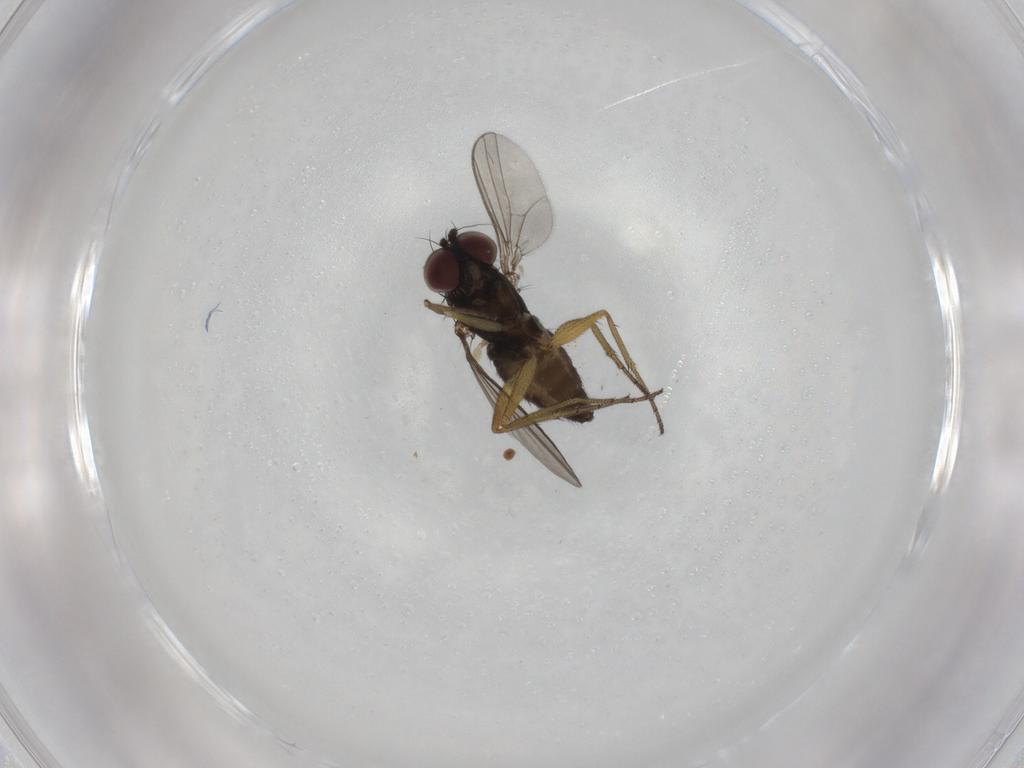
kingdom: Animalia
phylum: Arthropoda
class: Insecta
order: Diptera
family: Dolichopodidae
